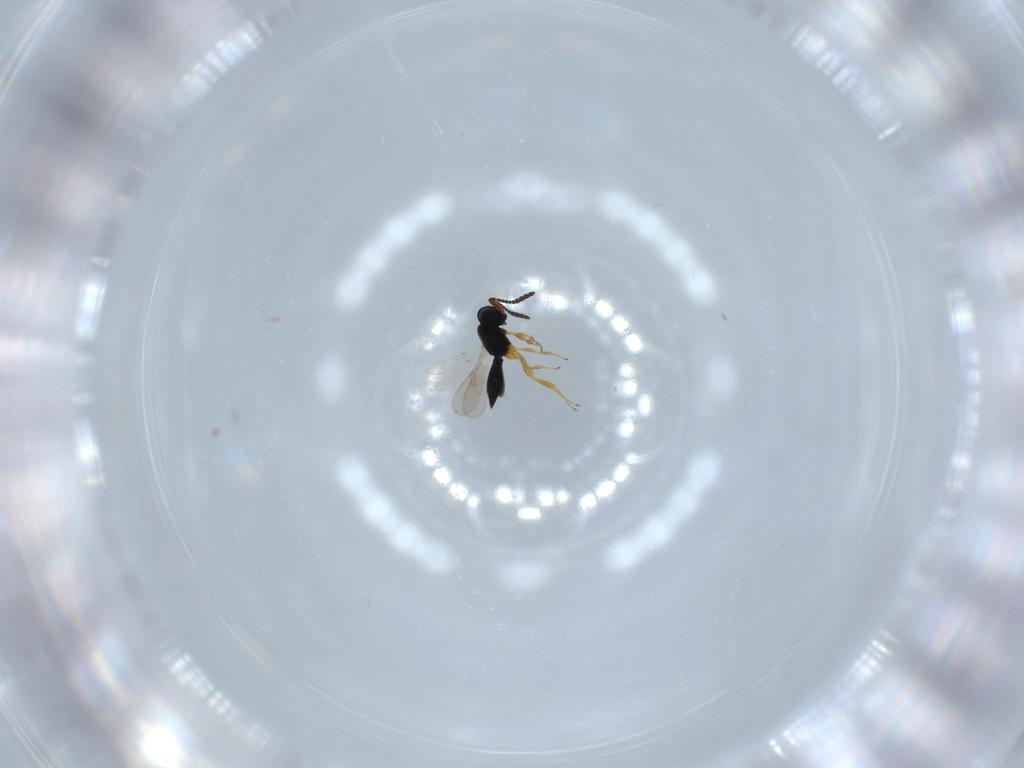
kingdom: Animalia
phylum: Arthropoda
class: Insecta
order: Hymenoptera
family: Scelionidae
